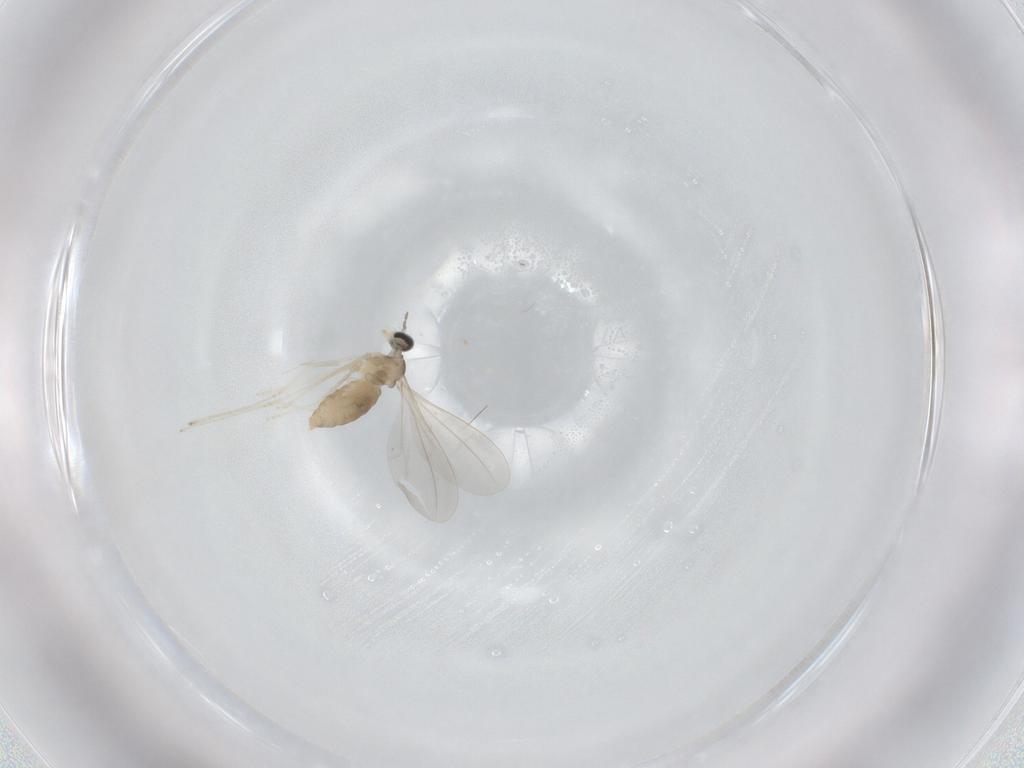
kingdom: Animalia
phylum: Arthropoda
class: Insecta
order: Diptera
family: Cecidomyiidae
